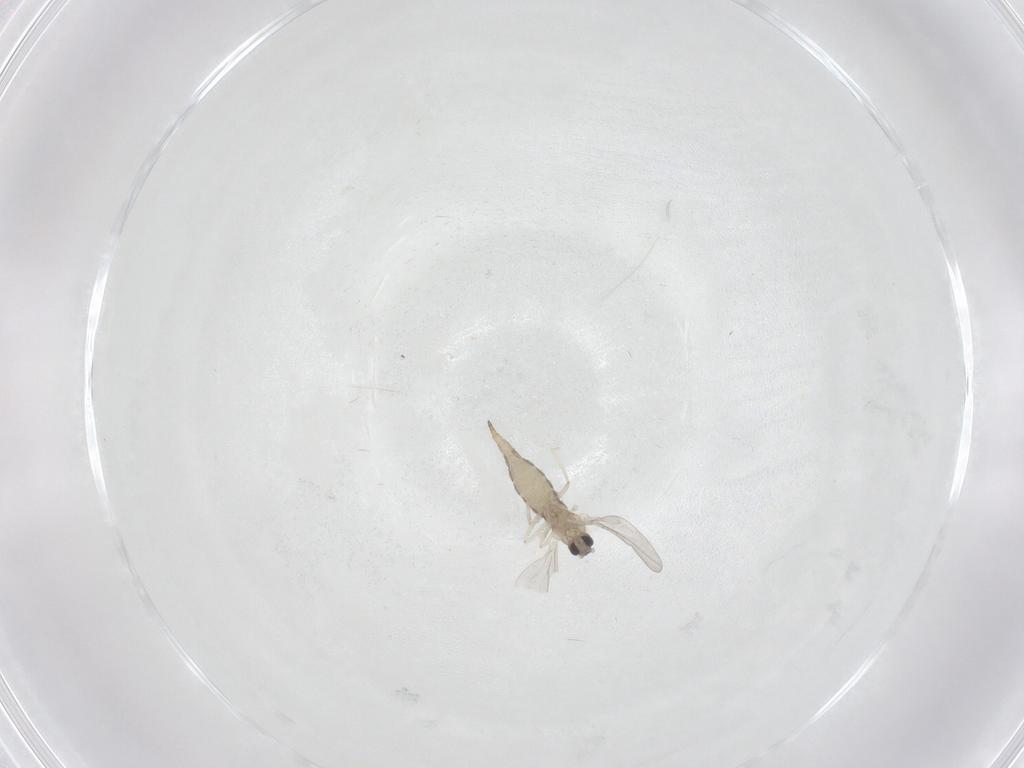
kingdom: Animalia
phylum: Arthropoda
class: Insecta
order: Diptera
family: Cecidomyiidae
